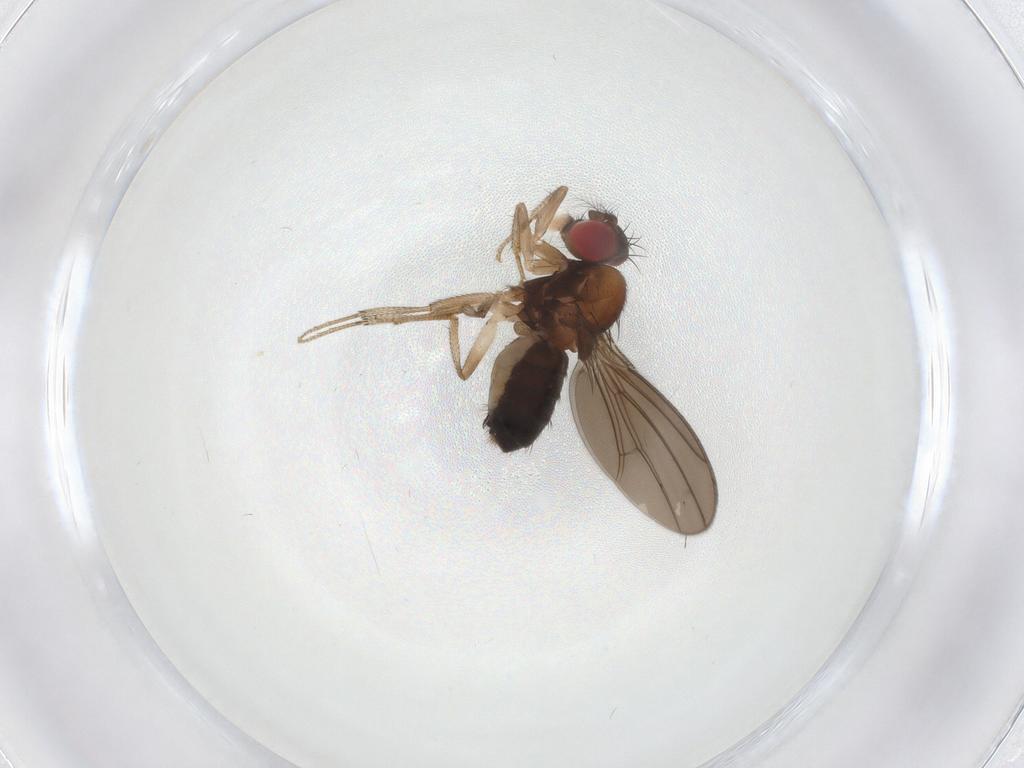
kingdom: Animalia
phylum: Arthropoda
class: Insecta
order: Diptera
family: Drosophilidae
